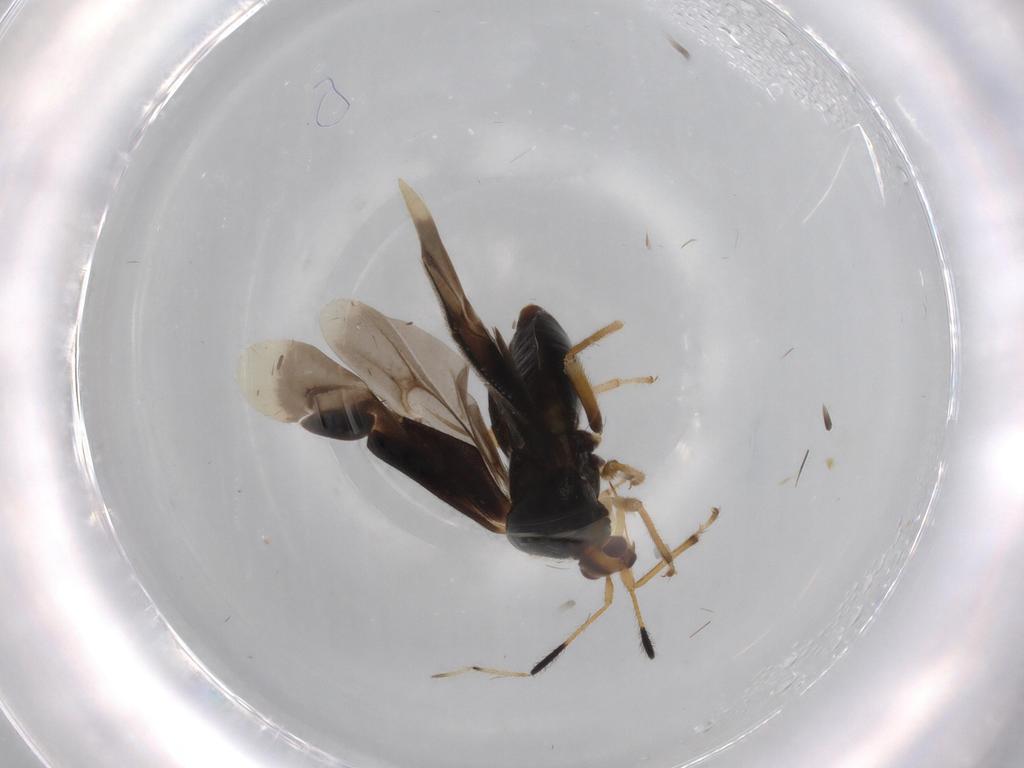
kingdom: Animalia
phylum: Arthropoda
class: Insecta
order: Hemiptera
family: Miridae
